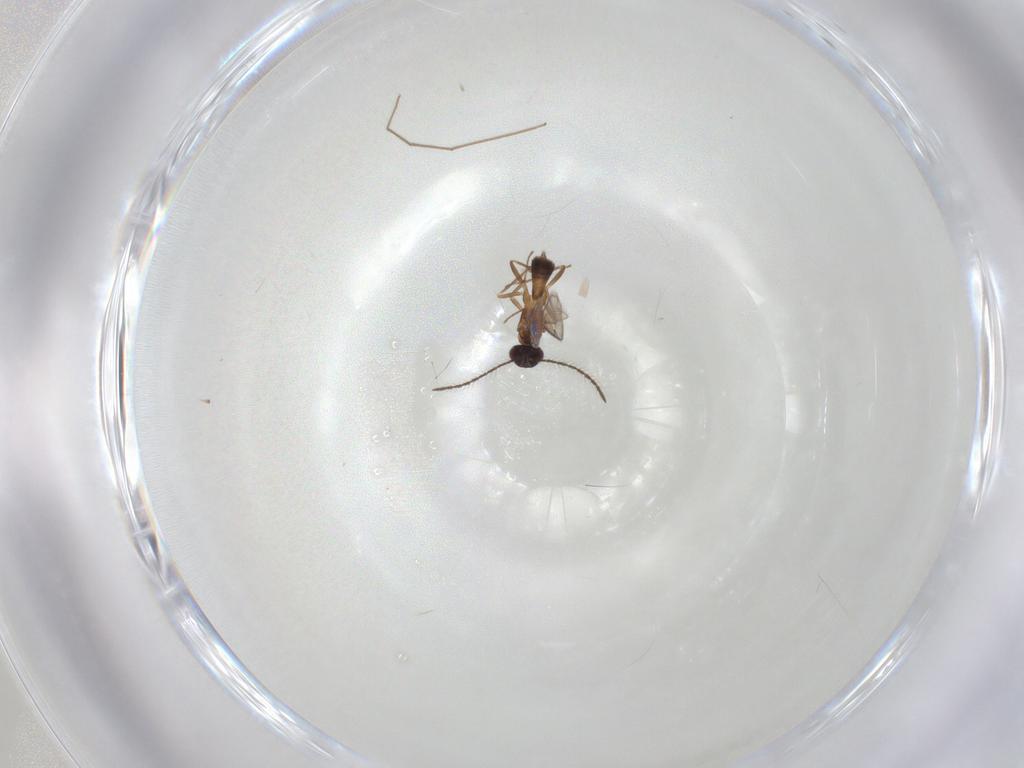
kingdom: Animalia
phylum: Arthropoda
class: Insecta
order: Hymenoptera
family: Eupelmidae
